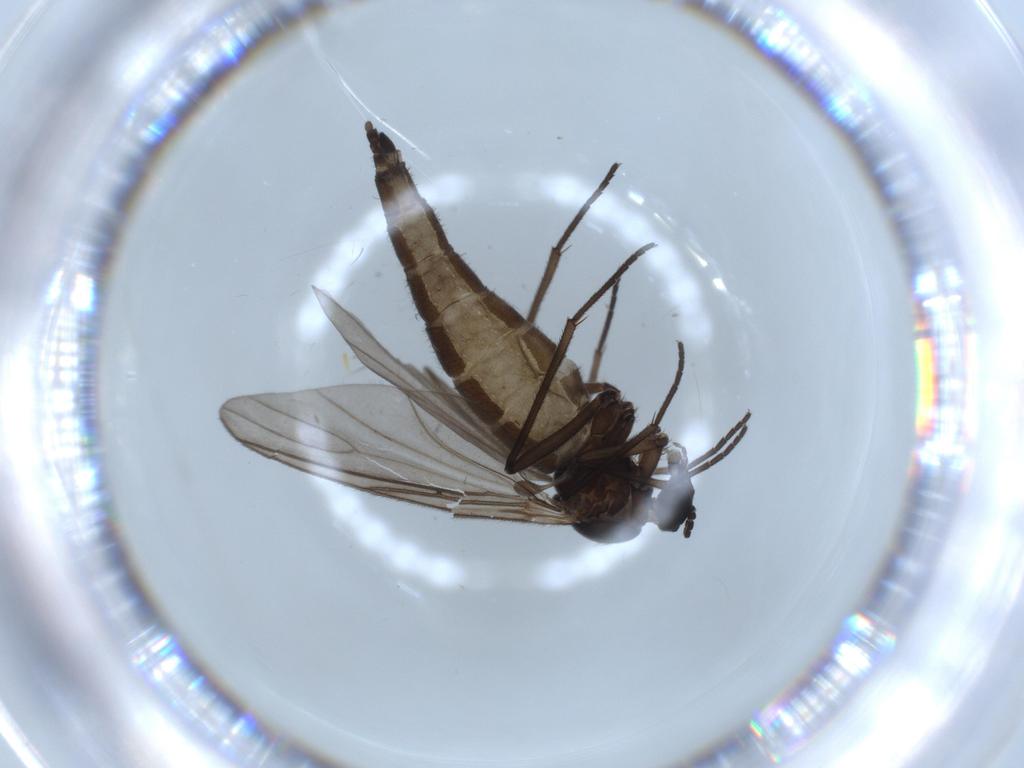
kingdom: Animalia
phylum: Arthropoda
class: Insecta
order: Diptera
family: Sciaridae
